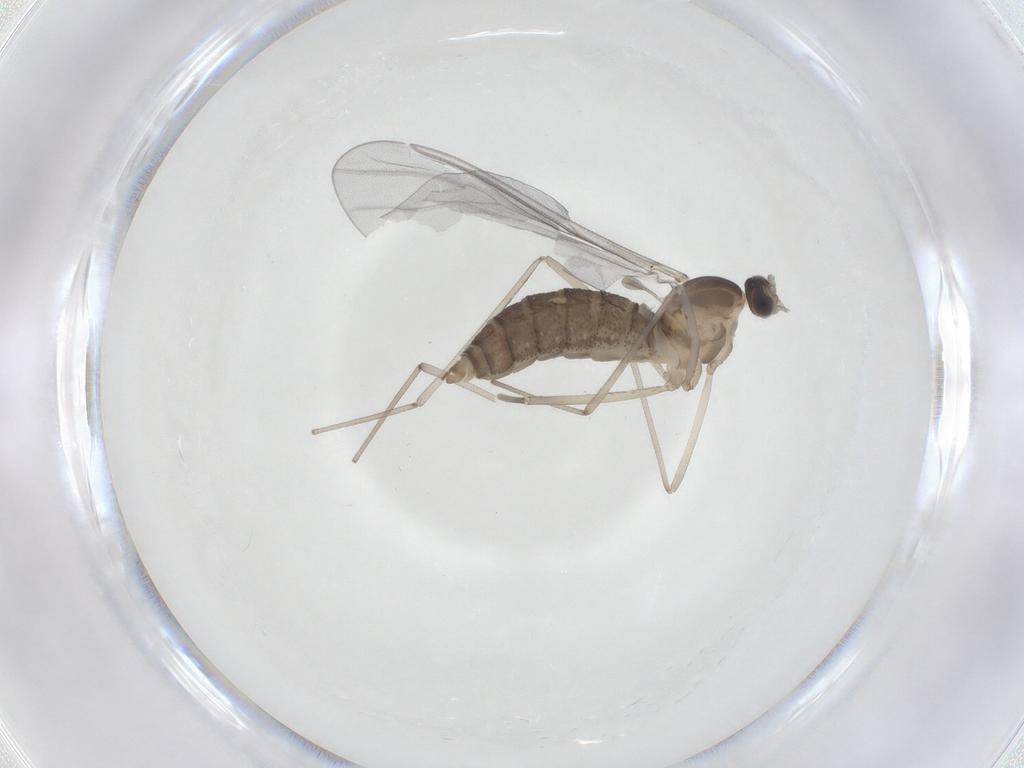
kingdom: Animalia
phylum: Arthropoda
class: Insecta
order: Diptera
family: Cecidomyiidae
